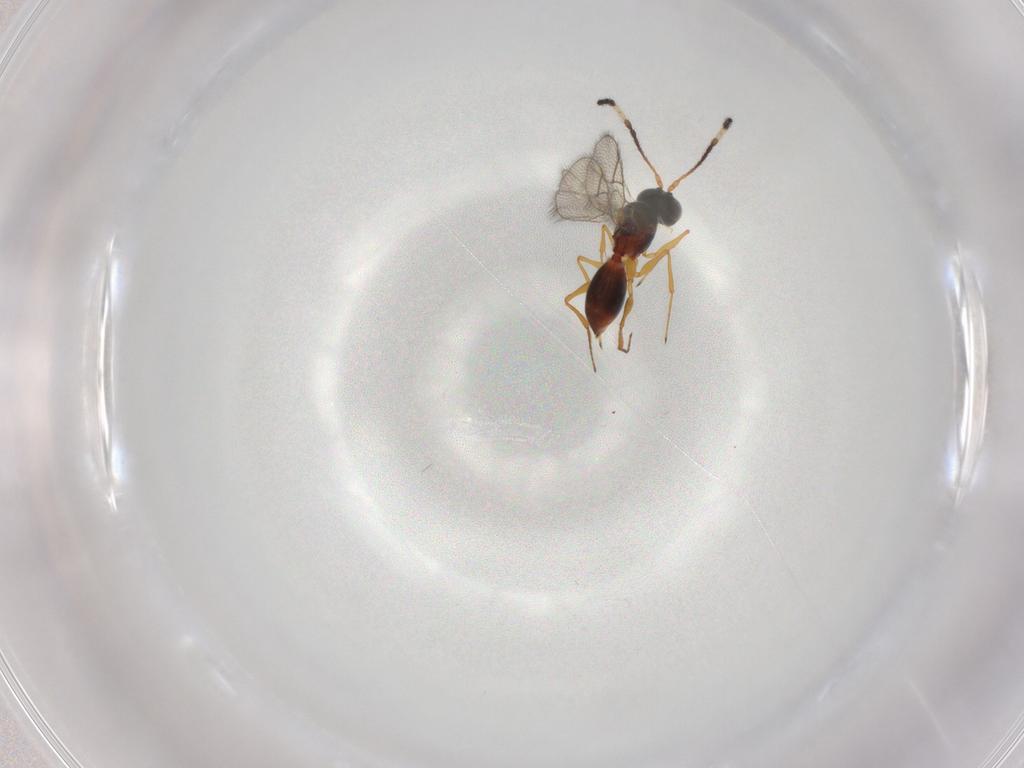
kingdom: Animalia
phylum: Arthropoda
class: Insecta
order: Hymenoptera
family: Figitidae
